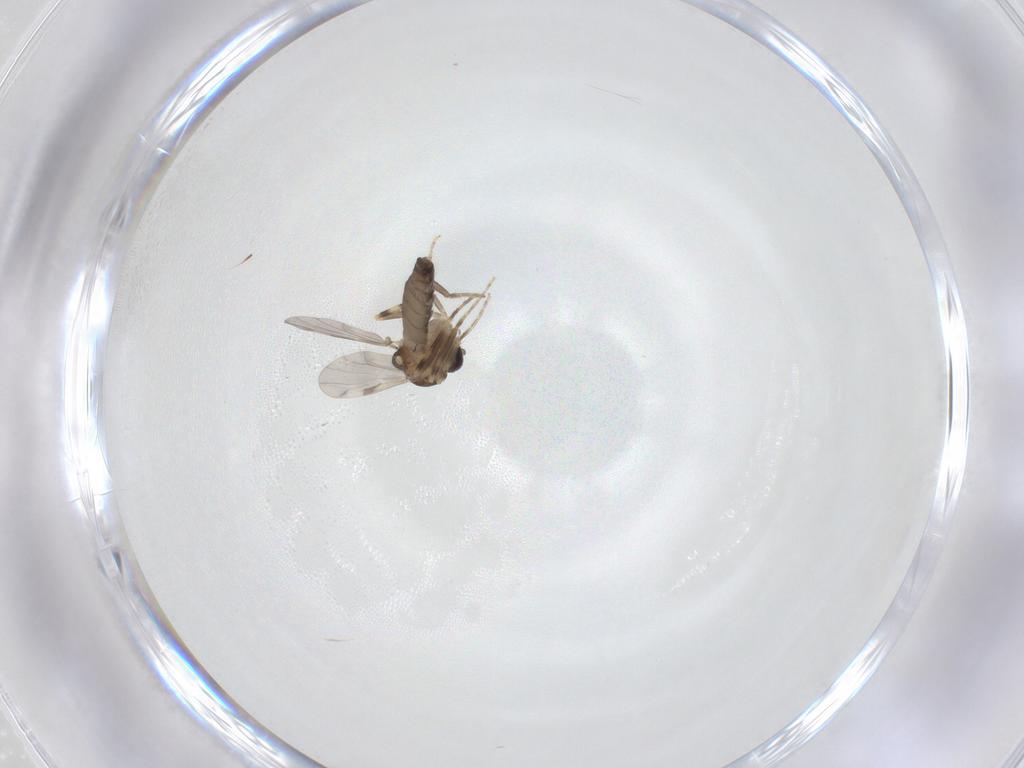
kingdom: Animalia
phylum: Arthropoda
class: Insecta
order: Diptera
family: Ceratopogonidae
